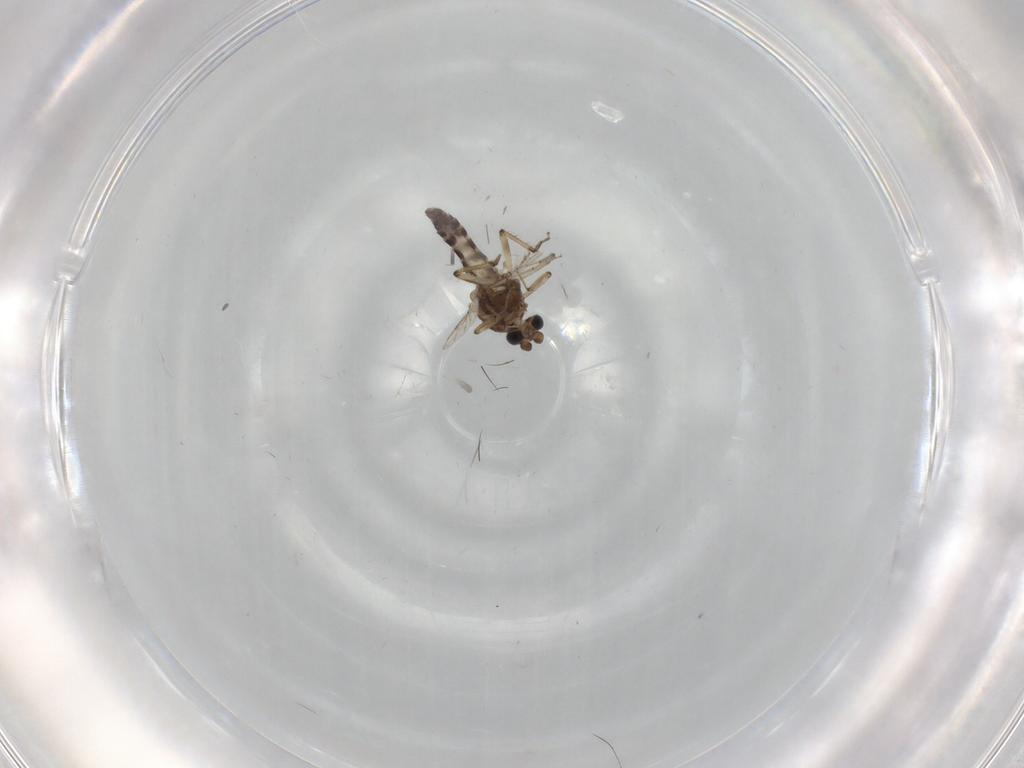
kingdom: Animalia
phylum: Arthropoda
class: Insecta
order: Diptera
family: Ceratopogonidae
